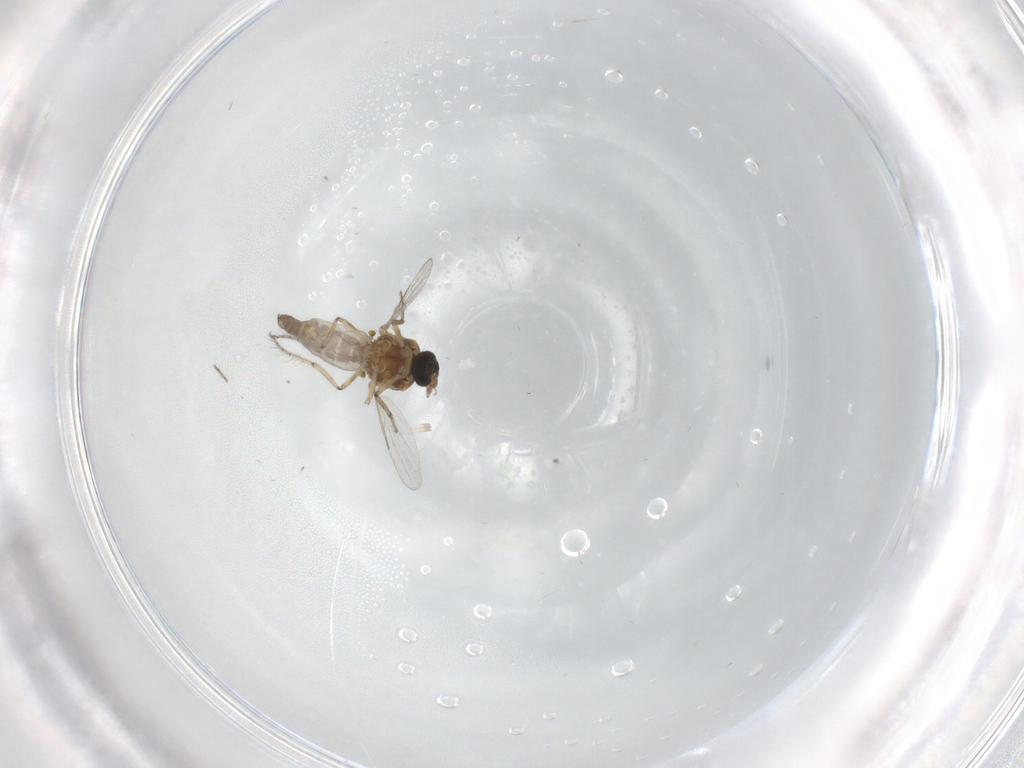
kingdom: Animalia
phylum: Arthropoda
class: Insecta
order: Diptera
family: Ceratopogonidae
